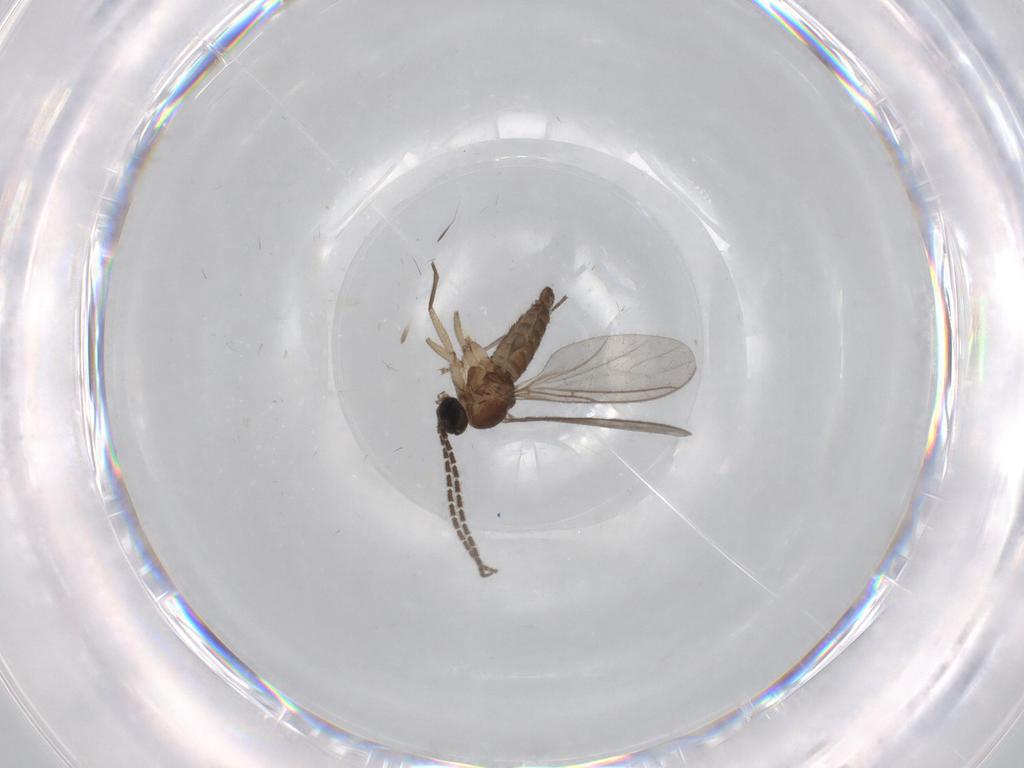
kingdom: Animalia
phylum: Arthropoda
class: Insecta
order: Diptera
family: Sciaridae
